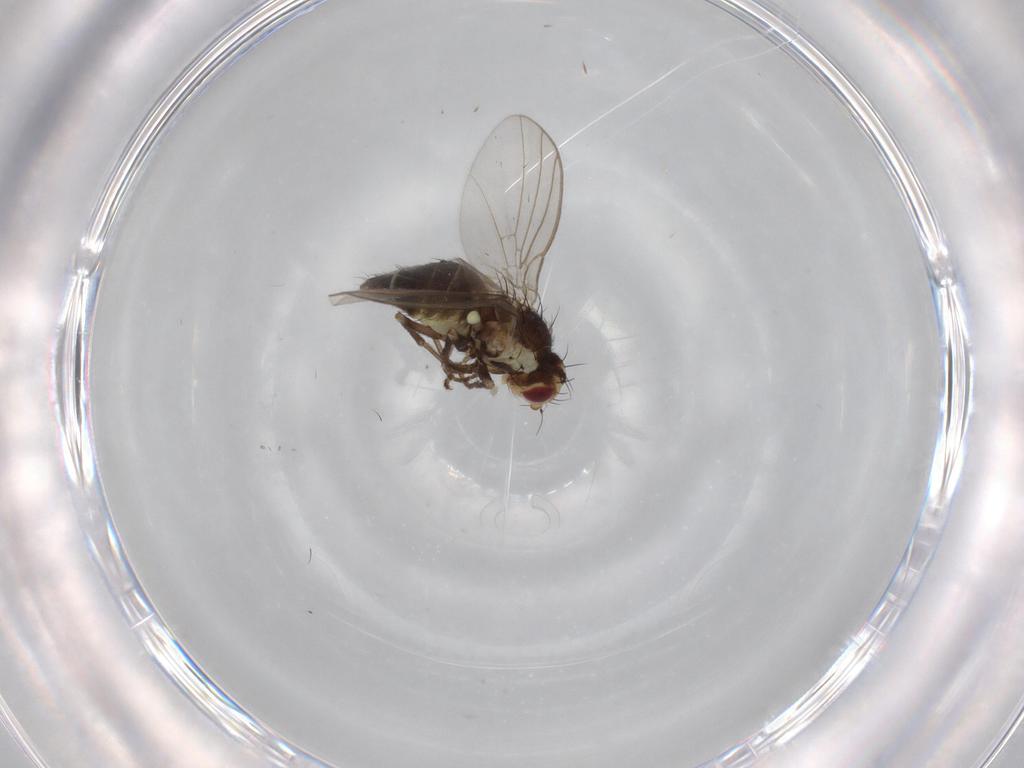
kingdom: Animalia
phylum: Arthropoda
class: Insecta
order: Diptera
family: Agromyzidae
